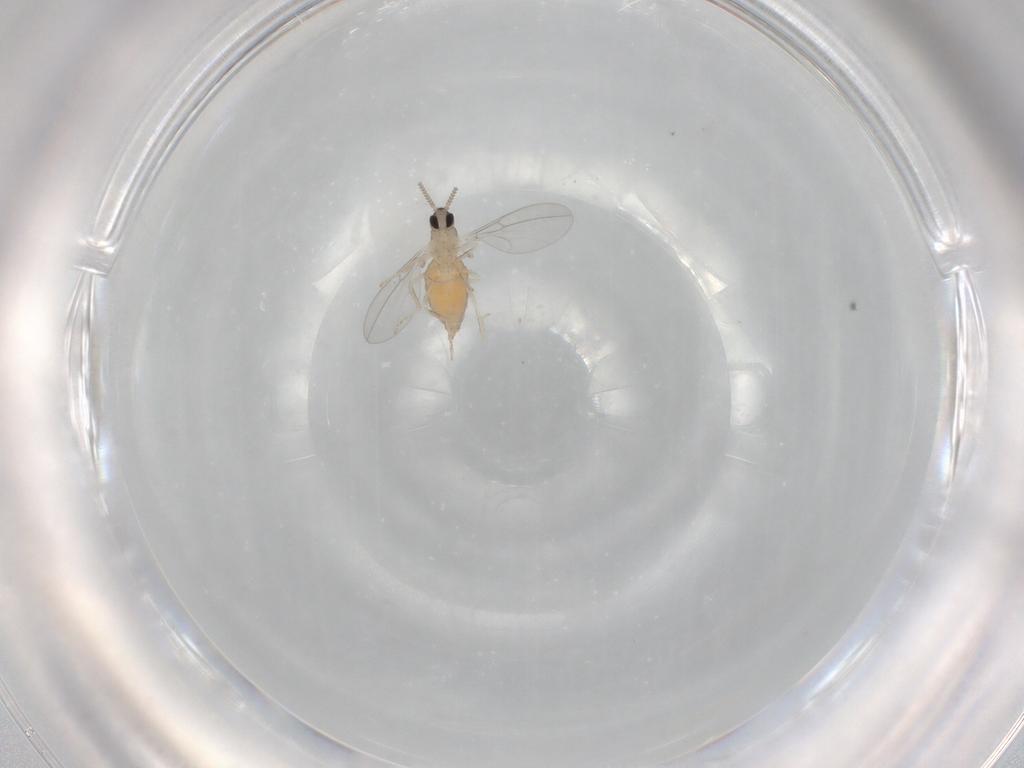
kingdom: Animalia
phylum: Arthropoda
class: Insecta
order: Diptera
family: Cecidomyiidae
